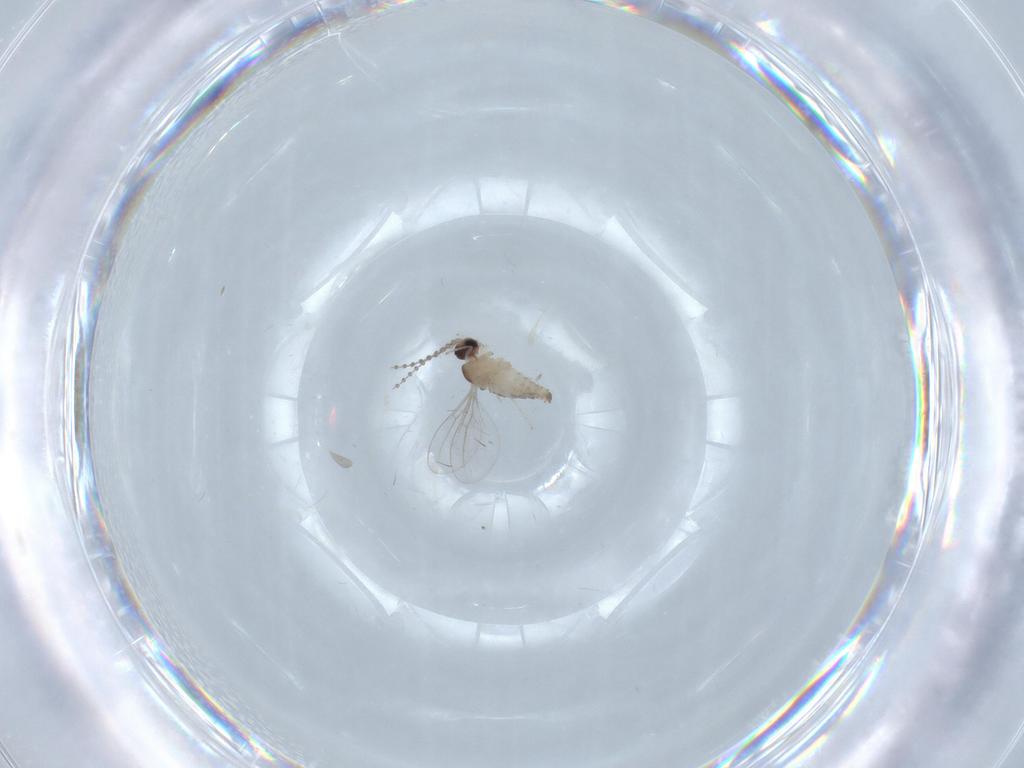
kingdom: Animalia
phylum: Arthropoda
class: Insecta
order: Diptera
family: Cecidomyiidae
